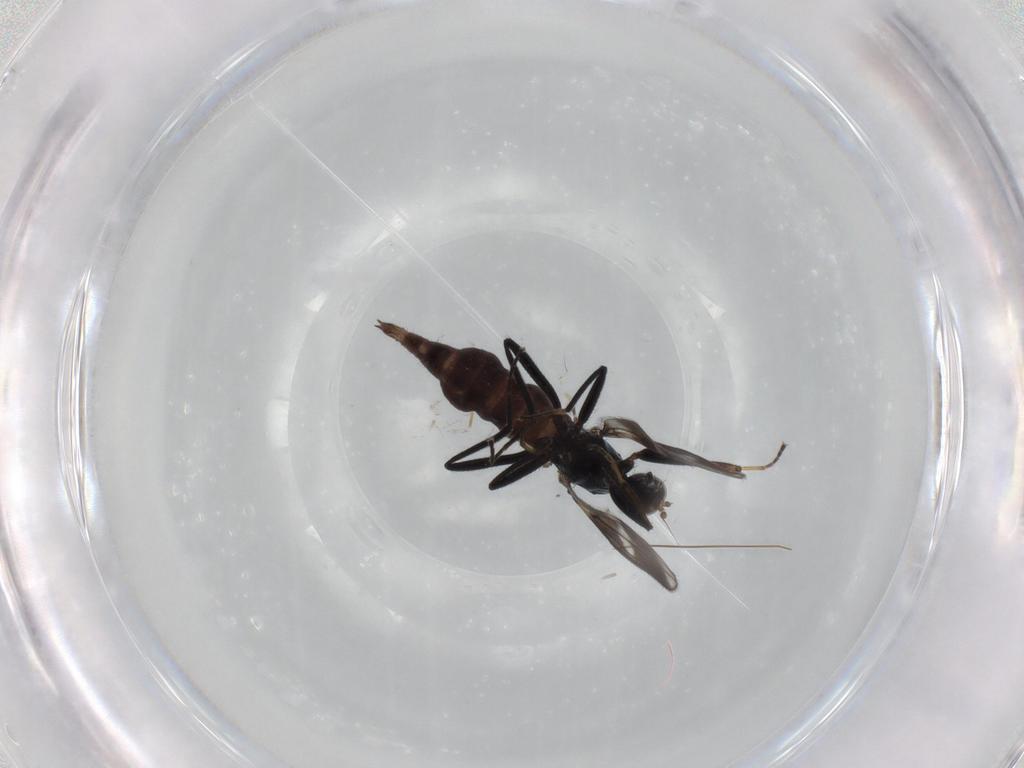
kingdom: Animalia
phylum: Arthropoda
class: Insecta
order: Diptera
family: Hybotidae
